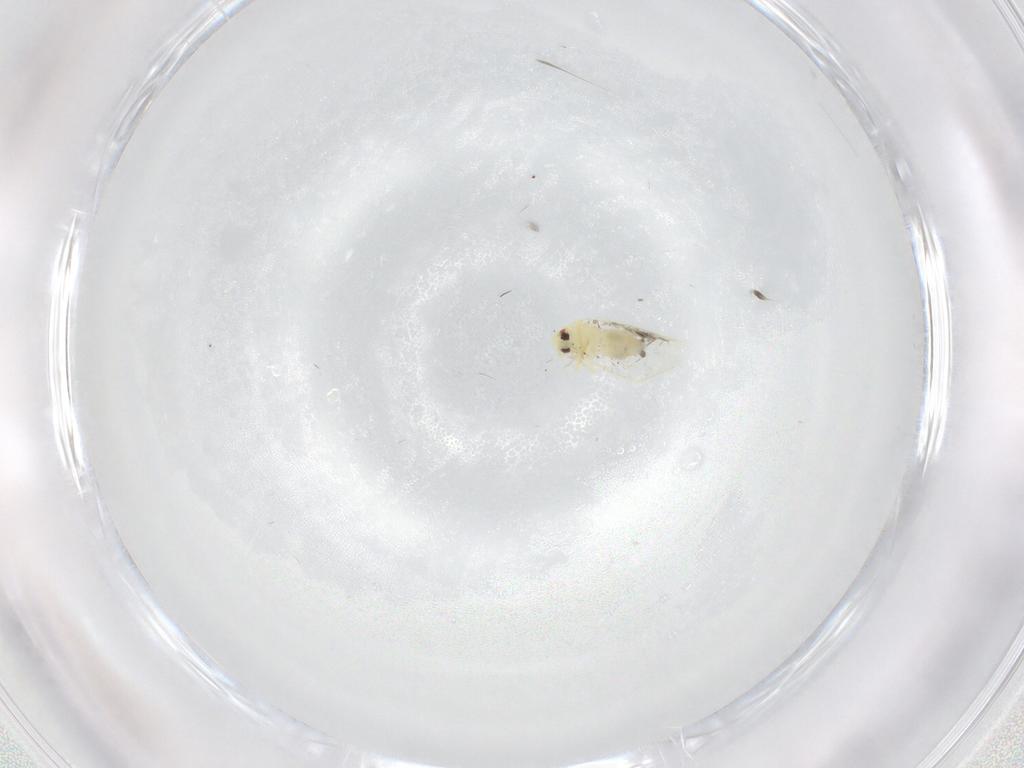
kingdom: Animalia
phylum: Arthropoda
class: Insecta
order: Hemiptera
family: Aleyrodidae
